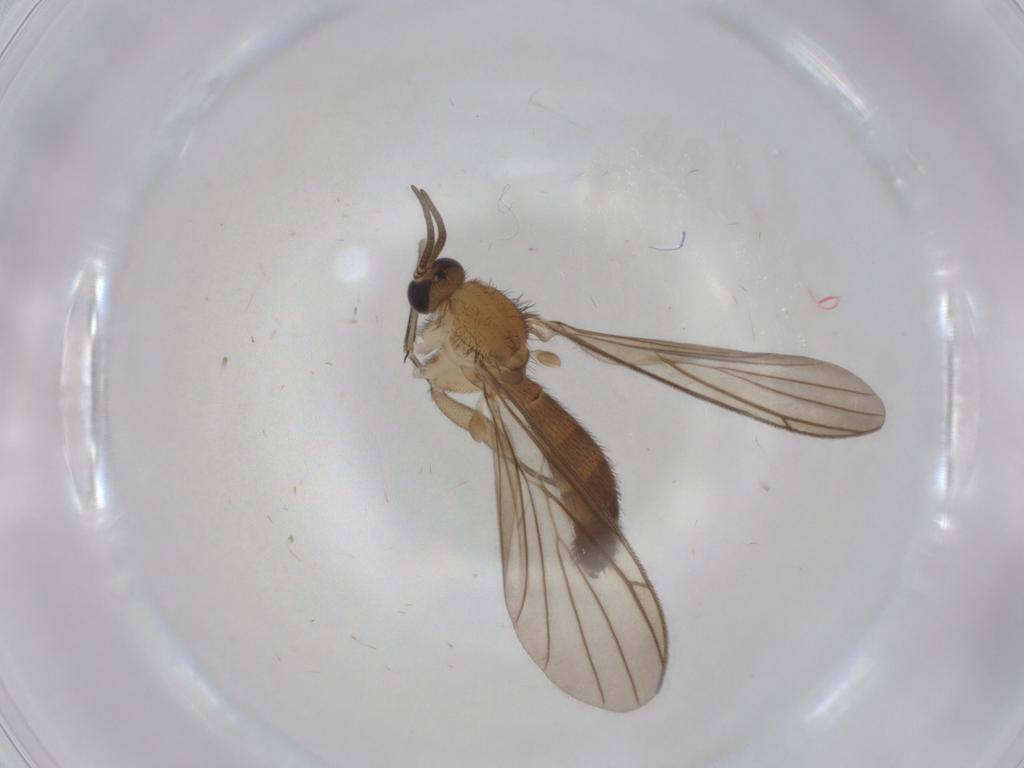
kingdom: Animalia
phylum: Arthropoda
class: Insecta
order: Diptera
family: Cecidomyiidae
